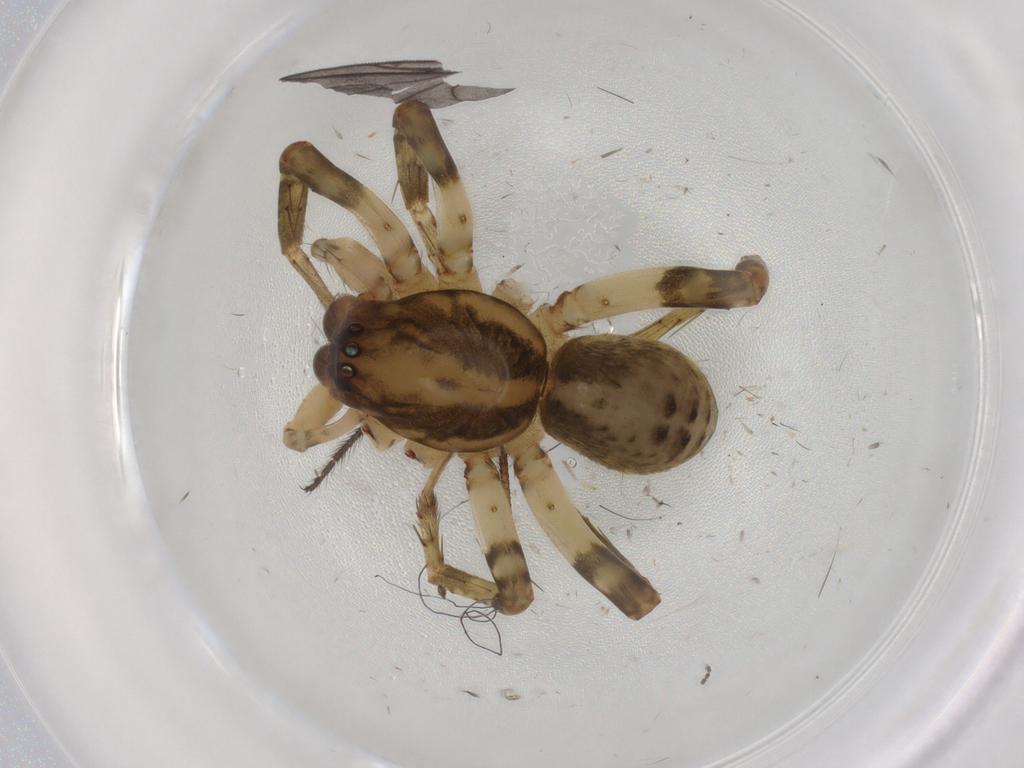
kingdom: Animalia
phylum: Arthropoda
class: Arachnida
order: Araneae
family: Anyphaenidae
